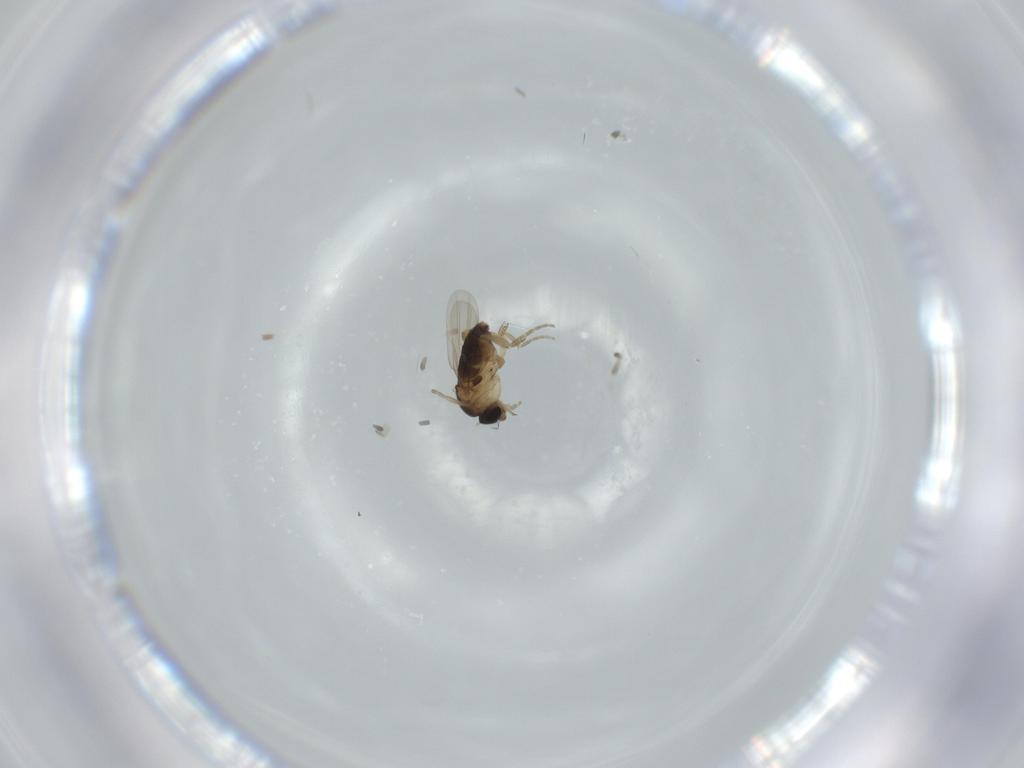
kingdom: Animalia
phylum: Arthropoda
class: Insecta
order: Diptera
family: Phoridae
